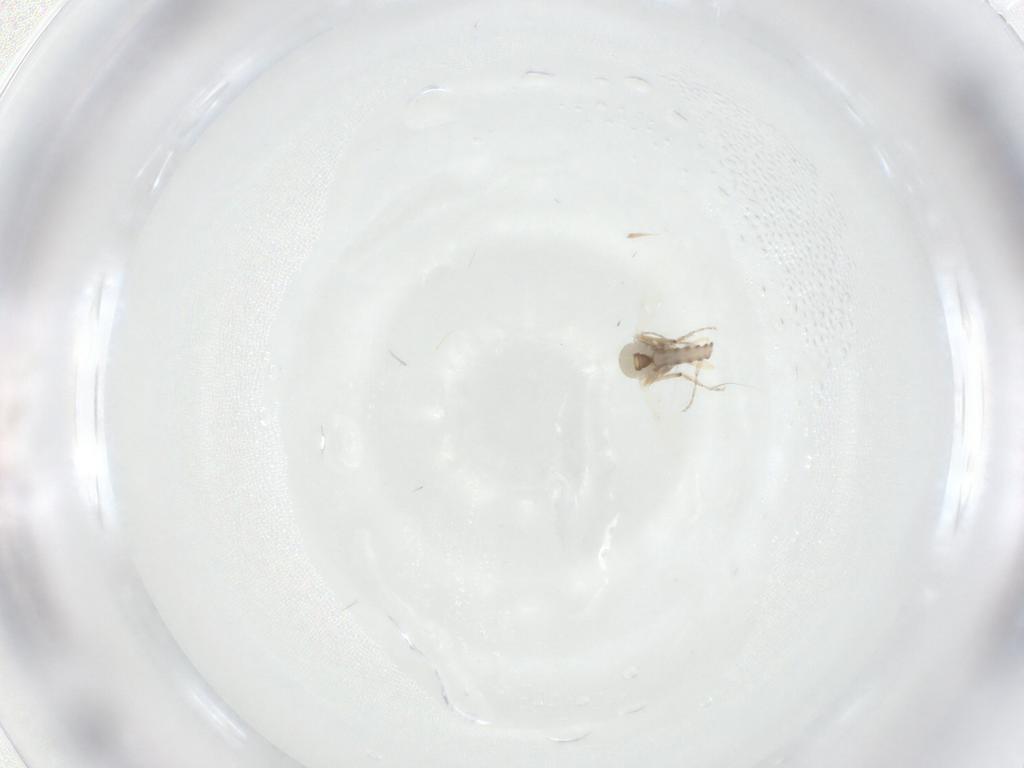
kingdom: Animalia
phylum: Arthropoda
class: Insecta
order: Diptera
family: Ceratopogonidae
